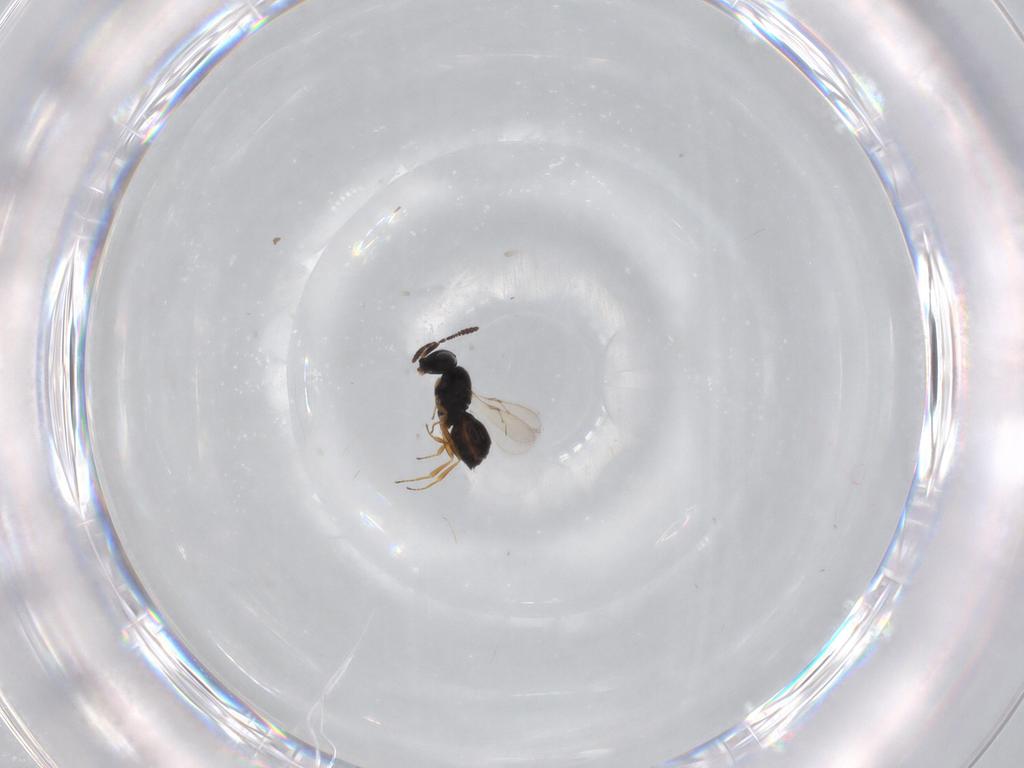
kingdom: Animalia
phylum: Arthropoda
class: Insecta
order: Hymenoptera
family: Scelionidae
